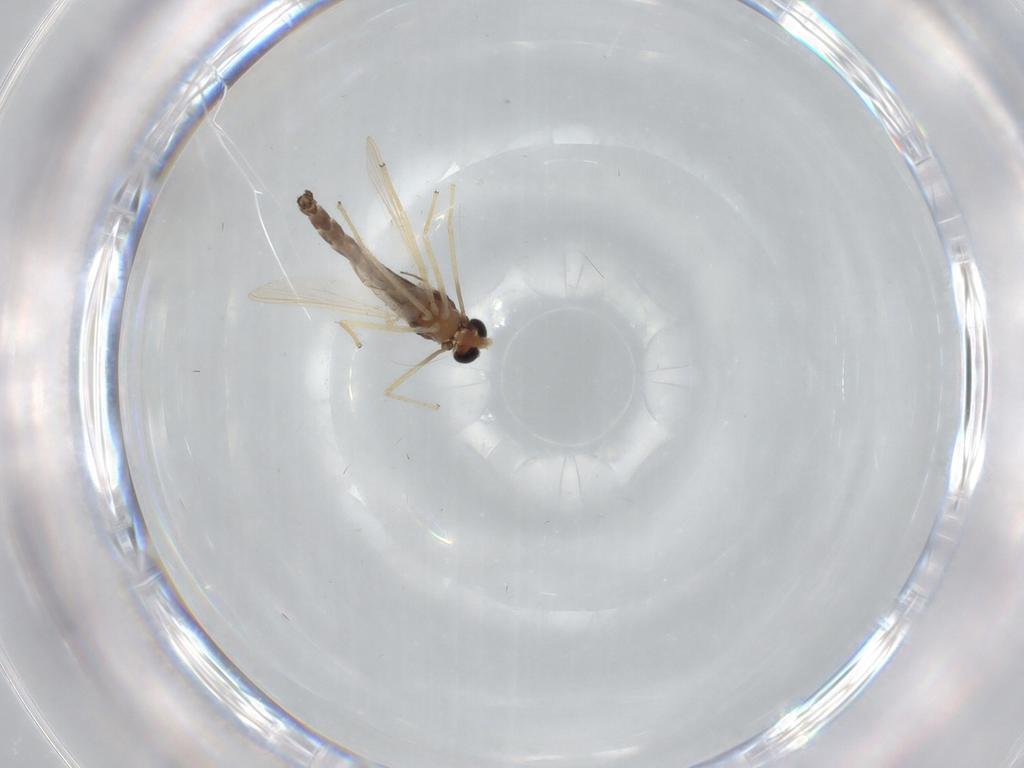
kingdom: Animalia
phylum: Arthropoda
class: Insecta
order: Diptera
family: Chironomidae
